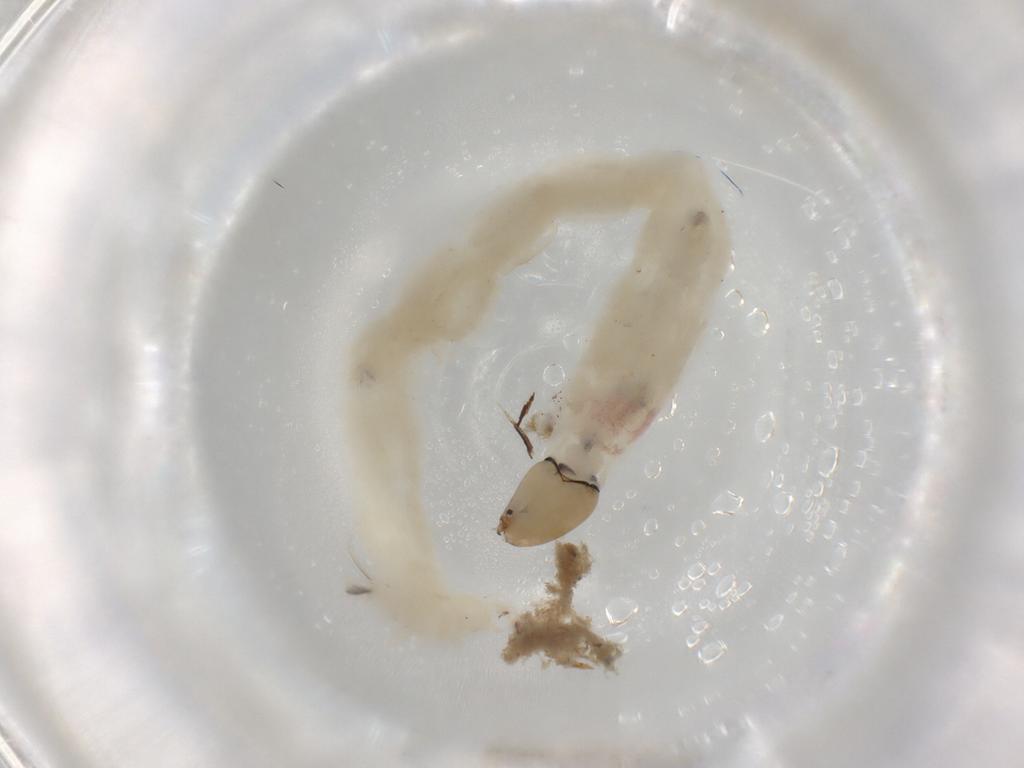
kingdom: Animalia
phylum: Arthropoda
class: Insecta
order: Diptera
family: Chironomidae
